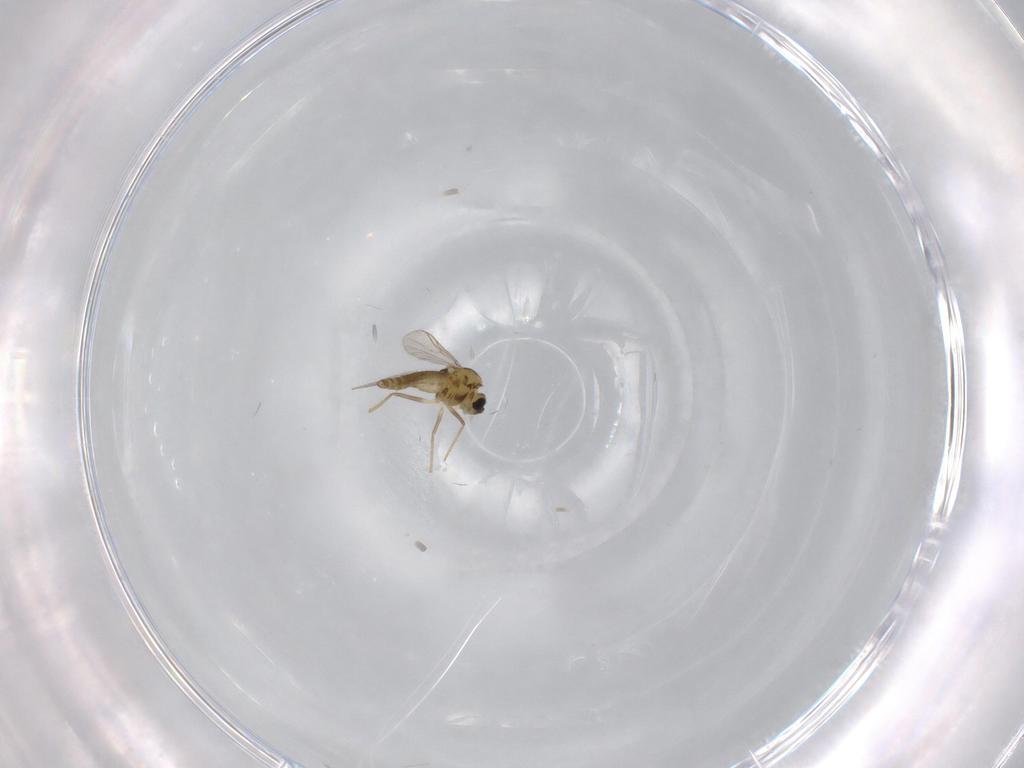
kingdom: Animalia
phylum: Arthropoda
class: Insecta
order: Diptera
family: Chironomidae
